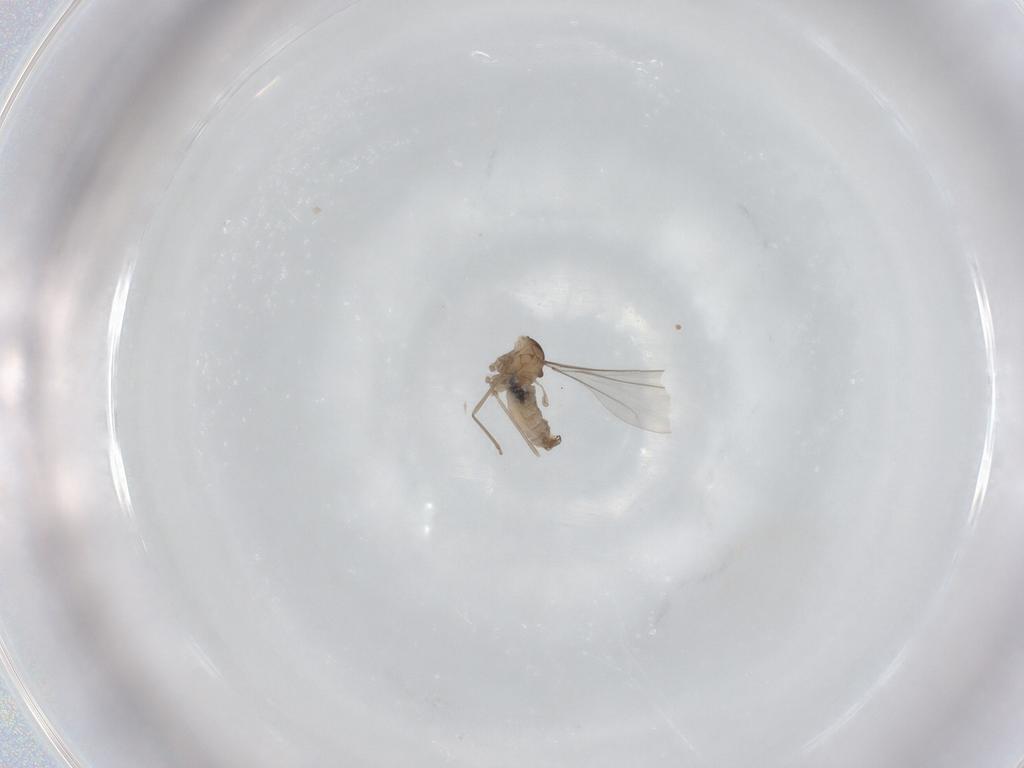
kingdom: Animalia
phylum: Arthropoda
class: Insecta
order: Diptera
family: Cecidomyiidae
